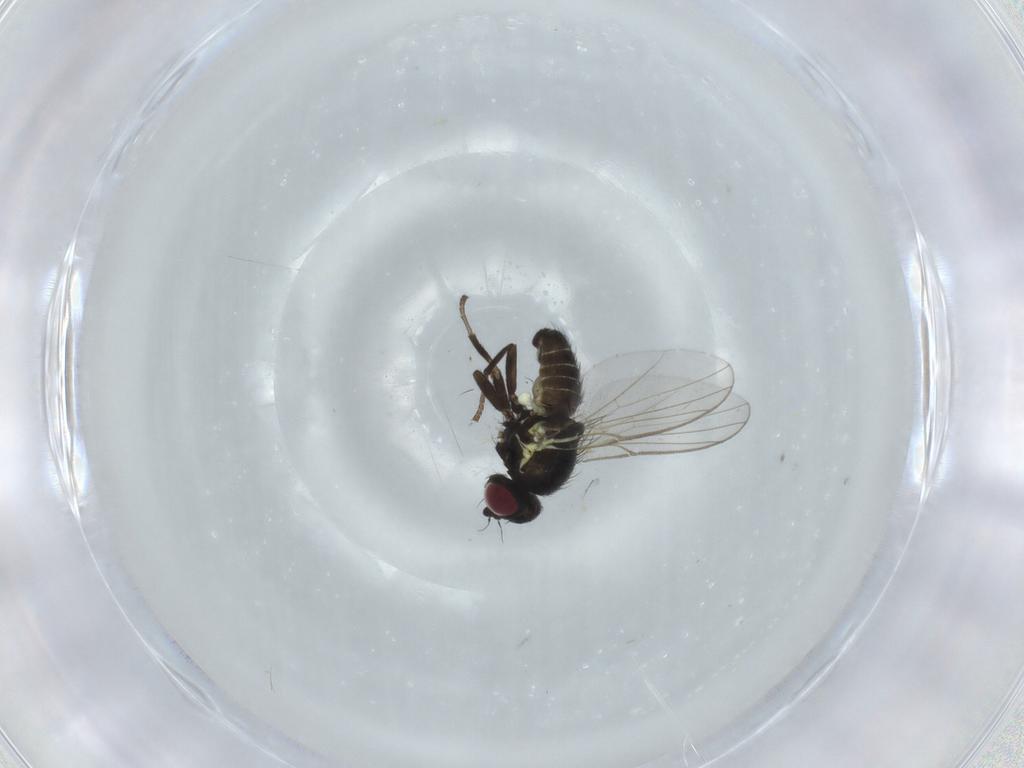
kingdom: Animalia
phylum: Arthropoda
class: Insecta
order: Diptera
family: Agromyzidae
